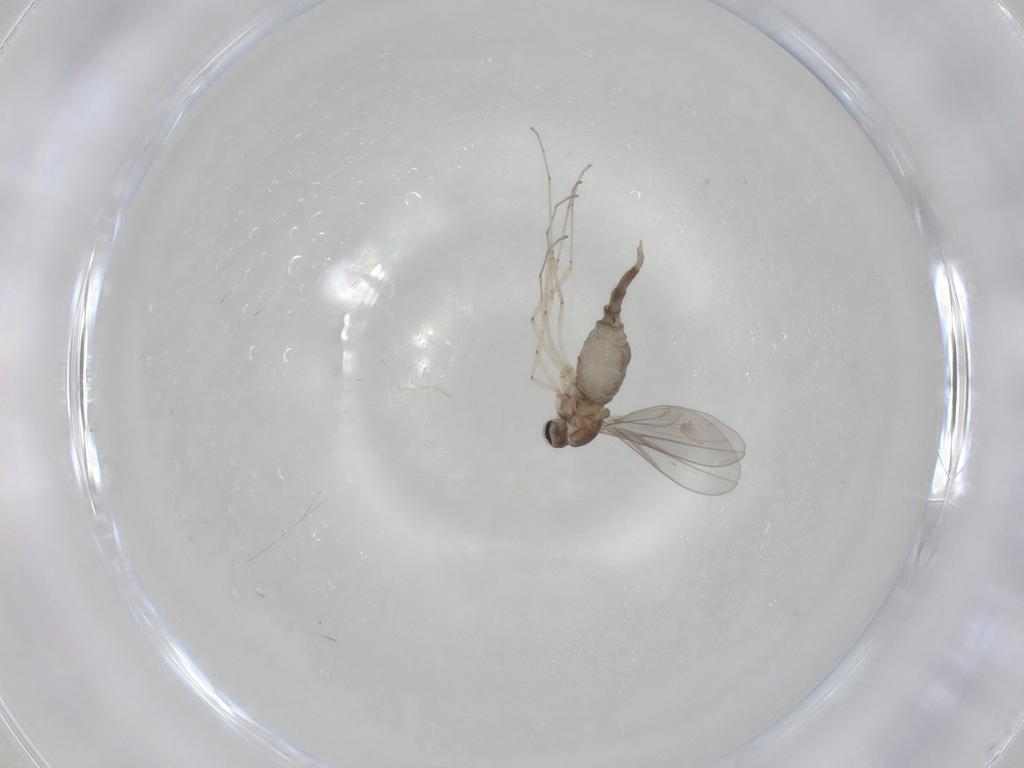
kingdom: Animalia
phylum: Arthropoda
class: Insecta
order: Diptera
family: Cecidomyiidae
